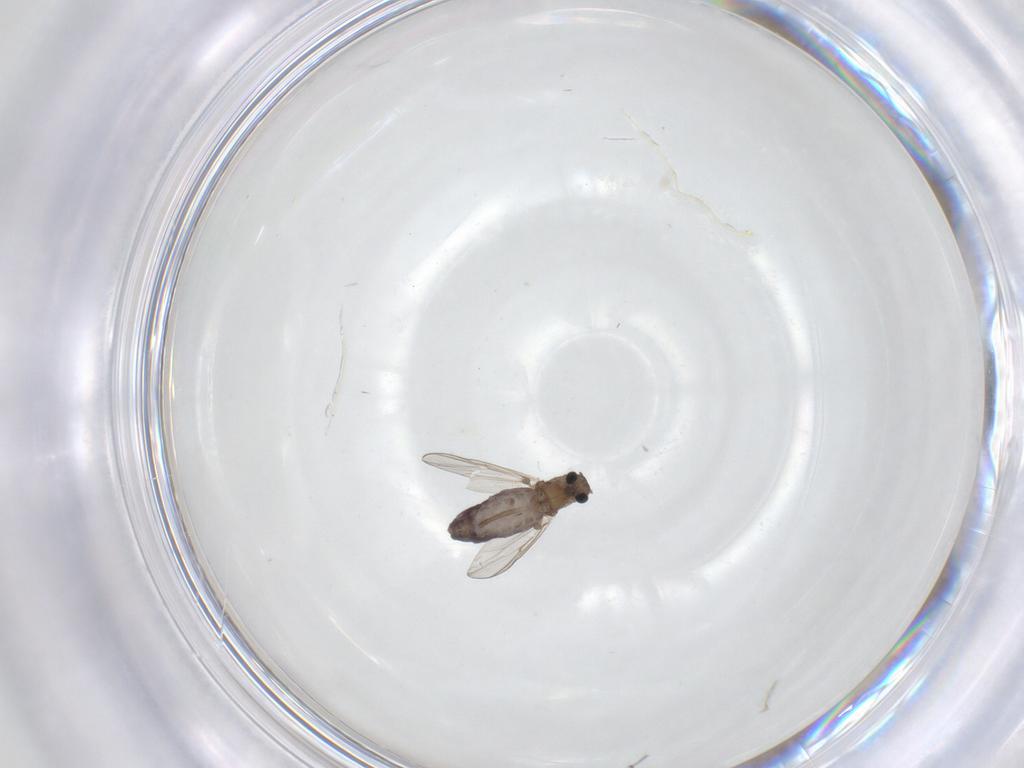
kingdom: Animalia
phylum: Arthropoda
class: Insecta
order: Diptera
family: Chironomidae
